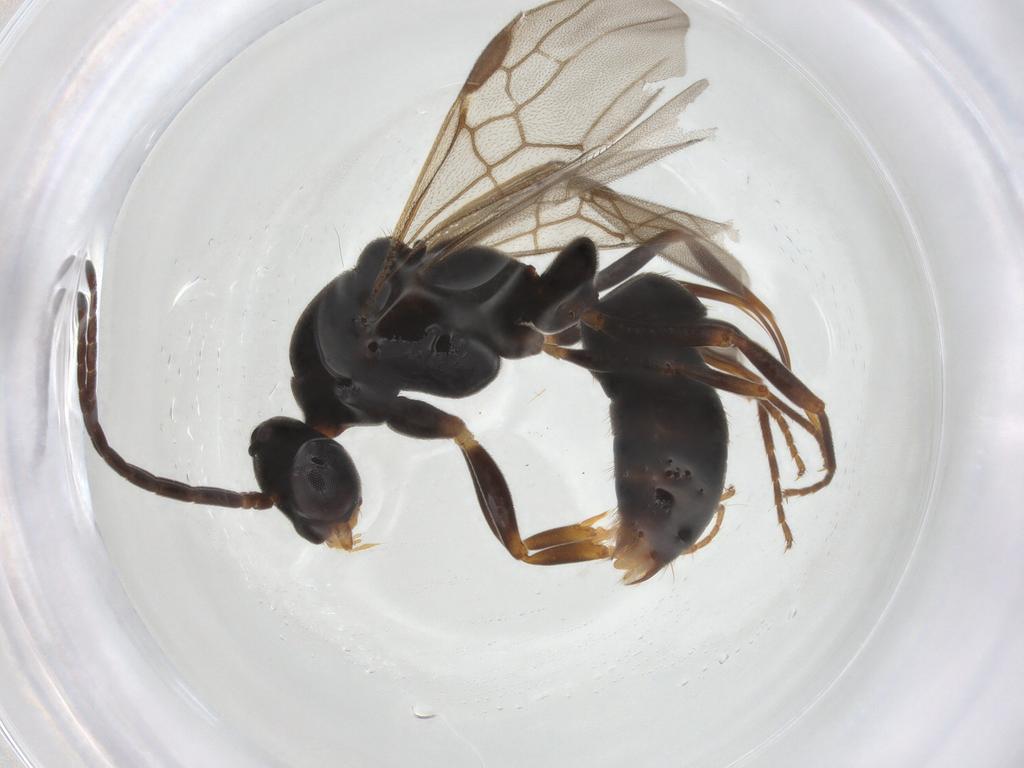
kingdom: Animalia
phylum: Arthropoda
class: Insecta
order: Hymenoptera
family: Formicidae
